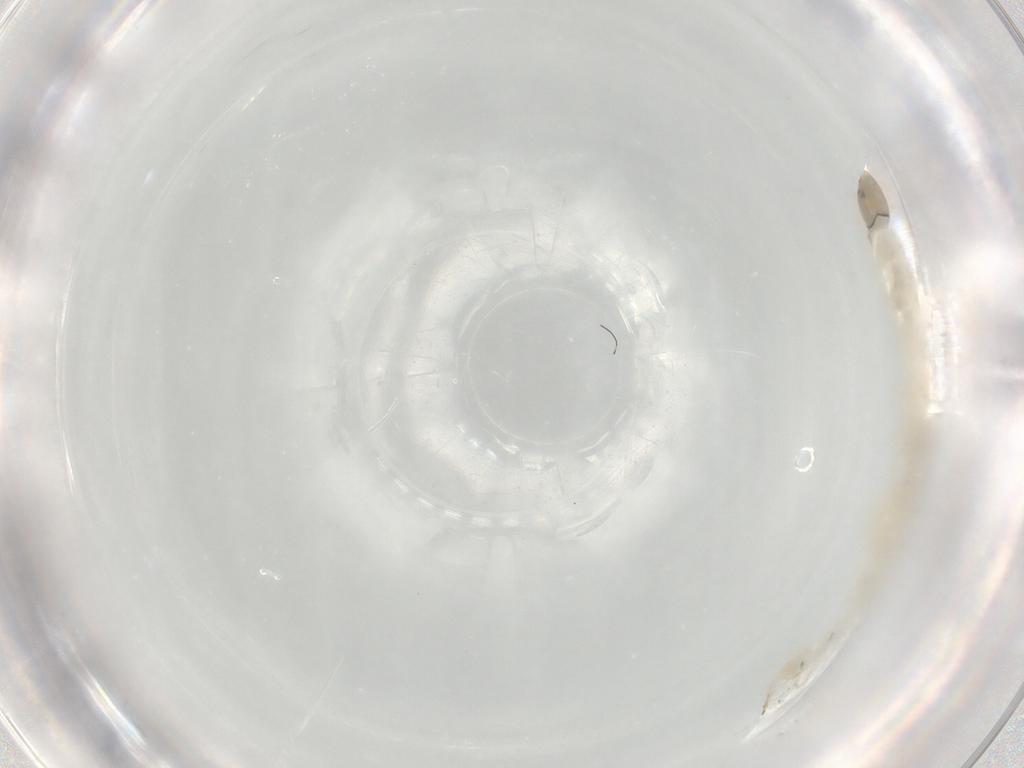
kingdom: Animalia
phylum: Arthropoda
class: Insecta
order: Diptera
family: Chironomidae
